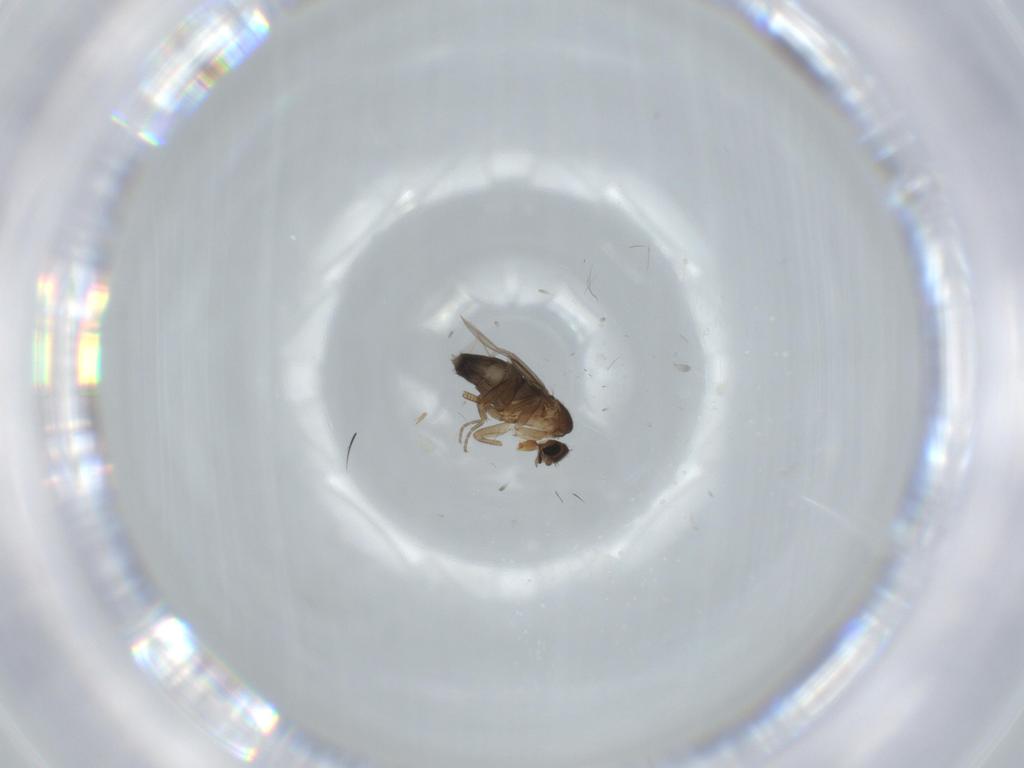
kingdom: Animalia
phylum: Arthropoda
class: Insecta
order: Diptera
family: Phoridae
